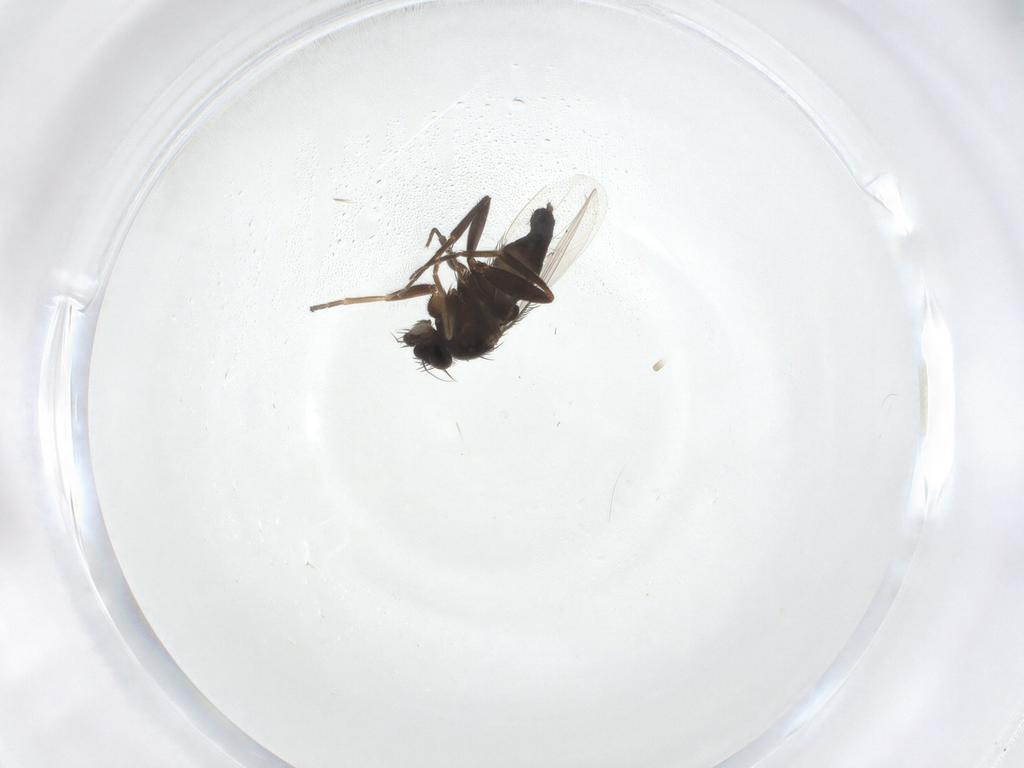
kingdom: Animalia
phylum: Arthropoda
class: Insecta
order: Diptera
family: Phoridae
